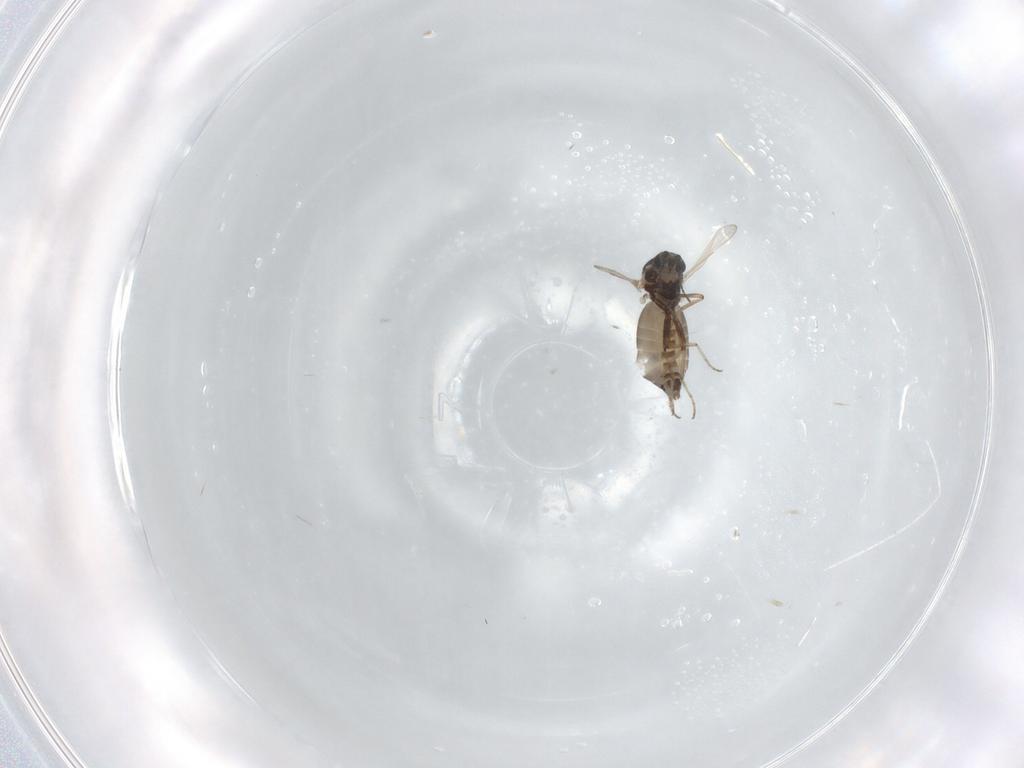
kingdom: Animalia
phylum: Arthropoda
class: Insecta
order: Diptera
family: Ceratopogonidae
